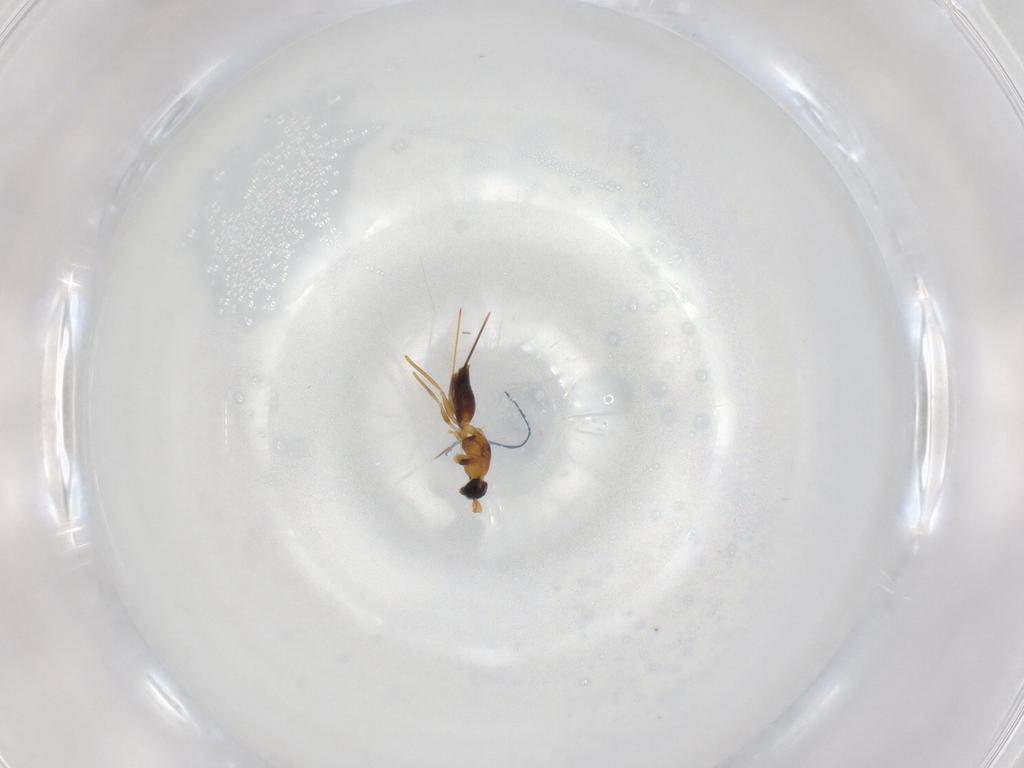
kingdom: Animalia
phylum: Arthropoda
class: Insecta
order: Hymenoptera
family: Mymaridae
